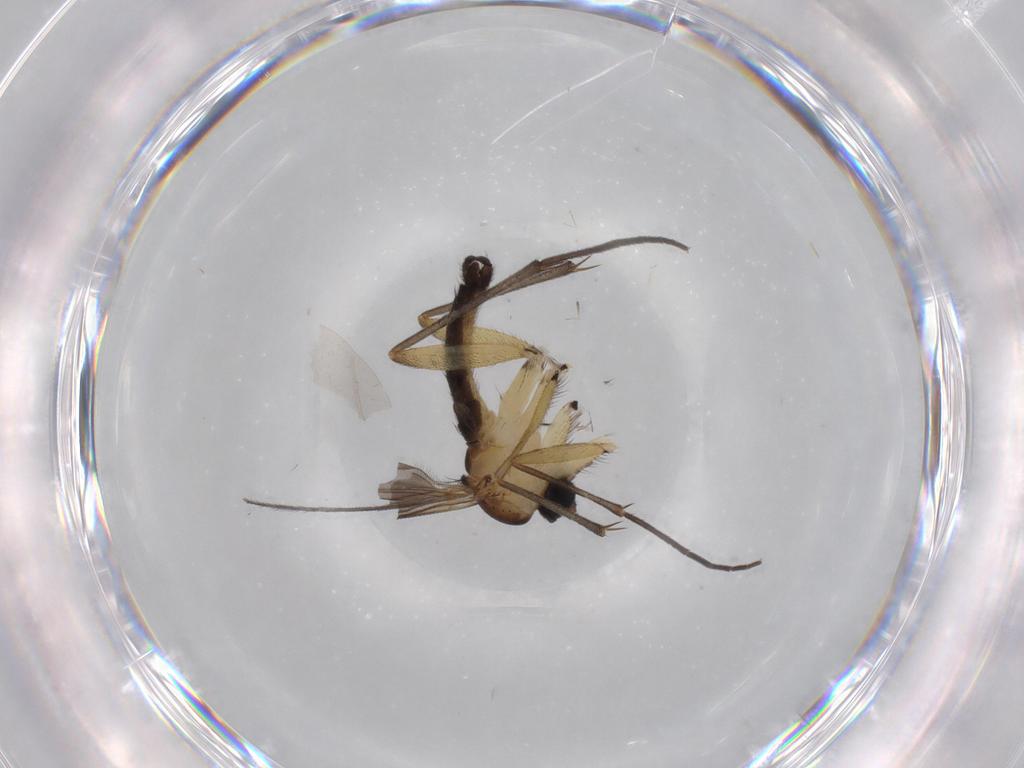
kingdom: Animalia
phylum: Arthropoda
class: Insecta
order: Diptera
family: Sciaridae
